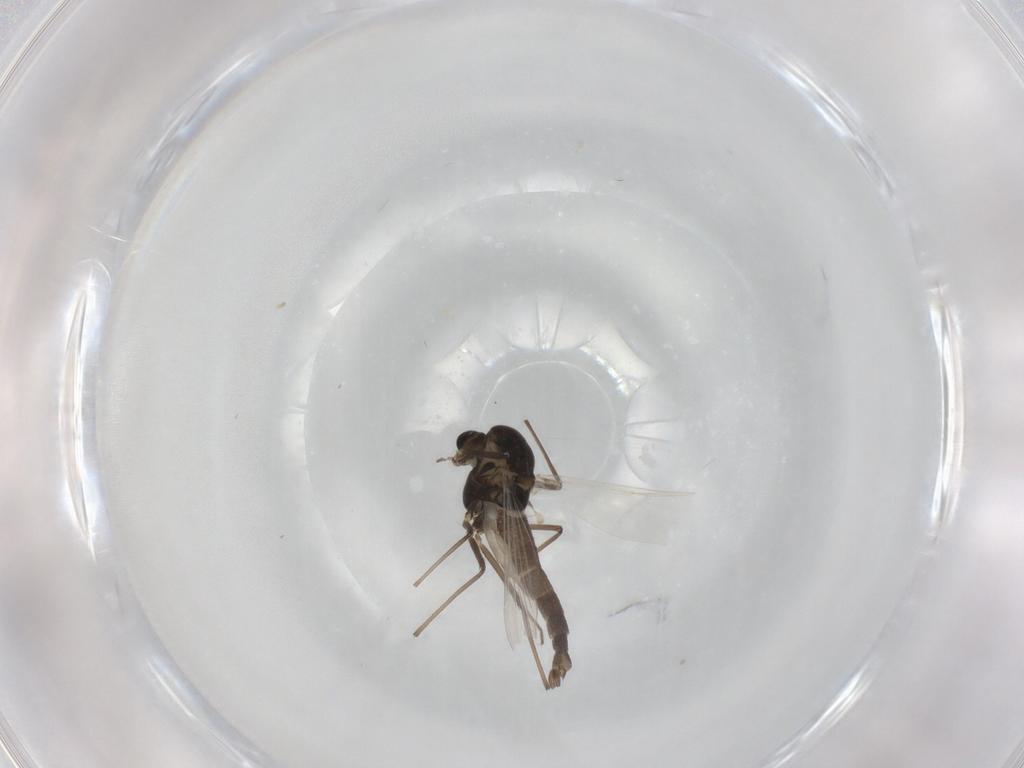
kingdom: Animalia
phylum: Arthropoda
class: Insecta
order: Diptera
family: Chironomidae
